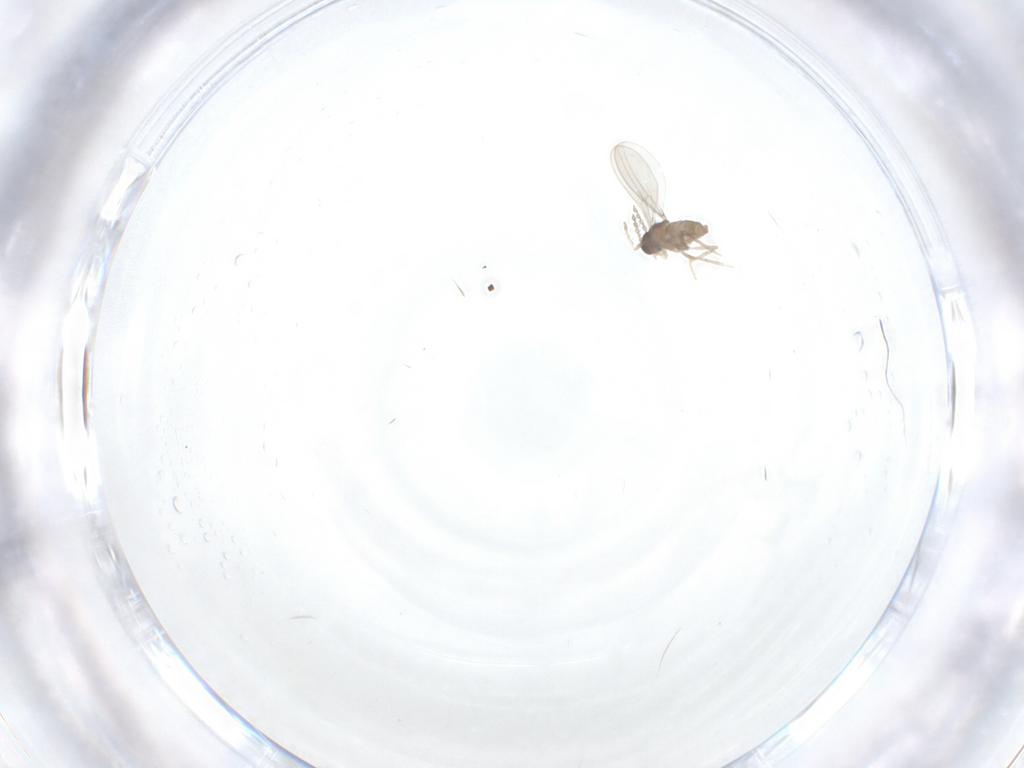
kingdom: Animalia
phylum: Arthropoda
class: Insecta
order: Diptera
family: Cecidomyiidae
